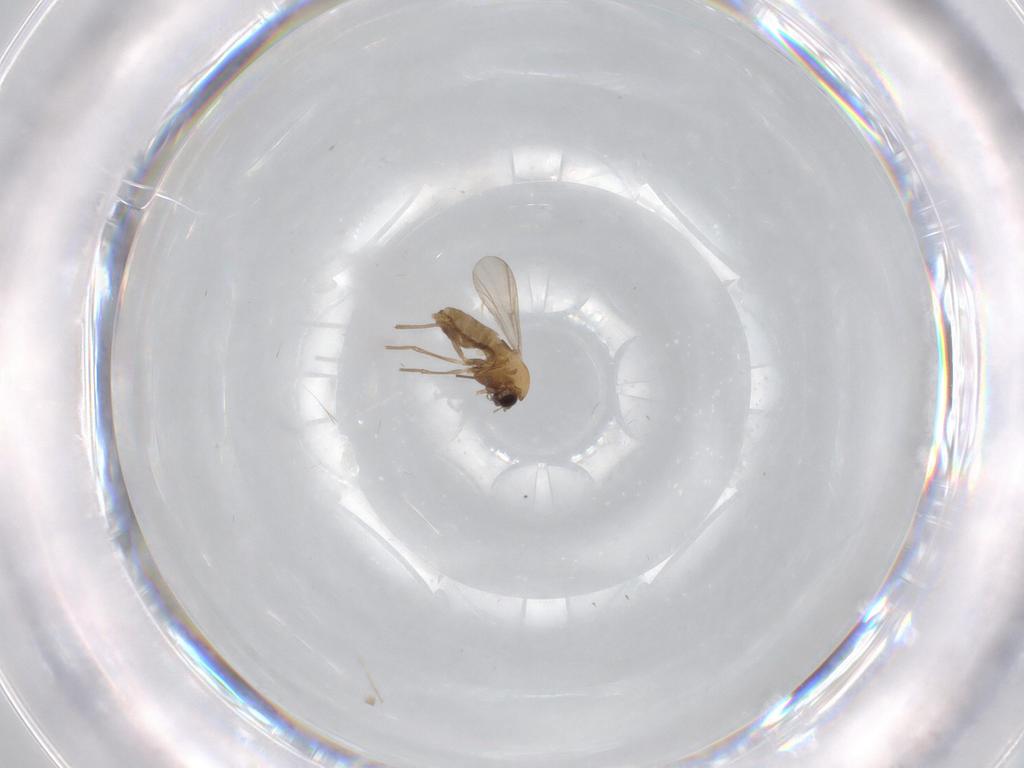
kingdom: Animalia
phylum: Arthropoda
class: Insecta
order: Diptera
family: Chironomidae
